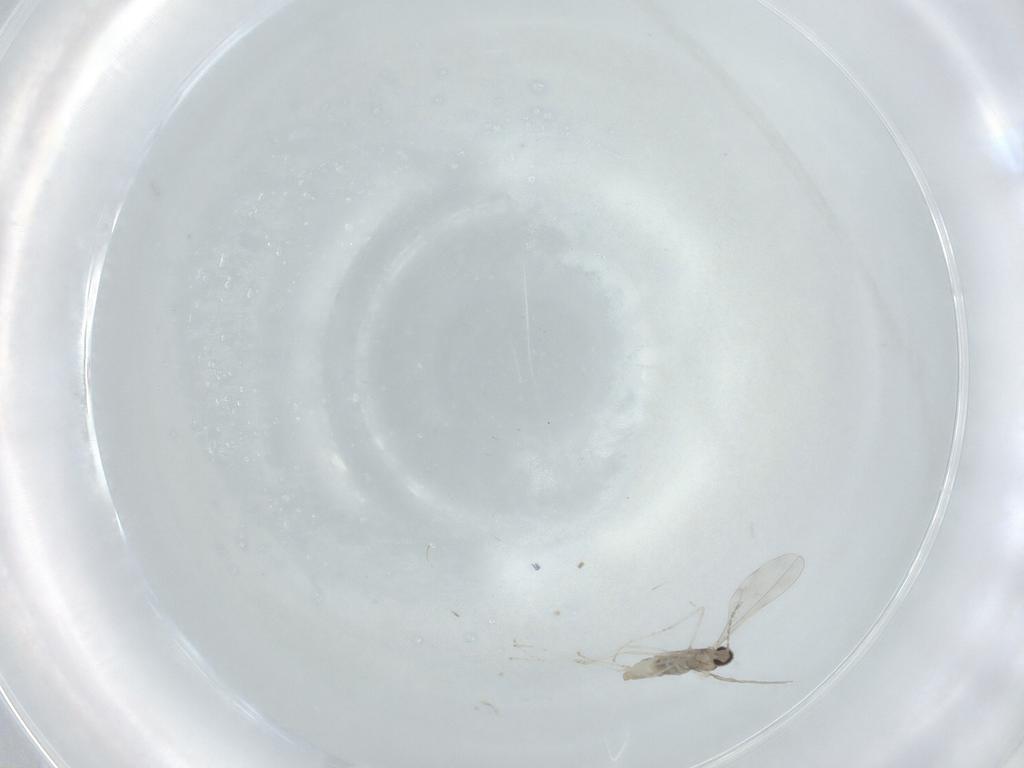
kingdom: Animalia
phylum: Arthropoda
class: Insecta
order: Diptera
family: Cecidomyiidae
